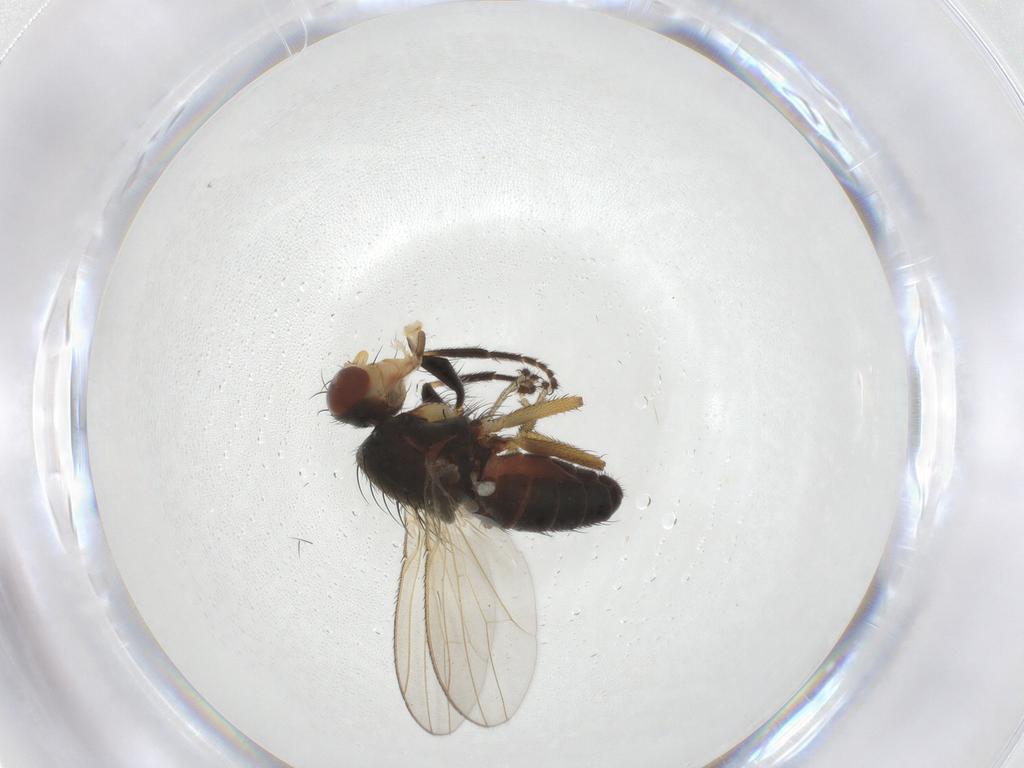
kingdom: Animalia
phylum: Arthropoda
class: Insecta
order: Diptera
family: Heleomyzidae
